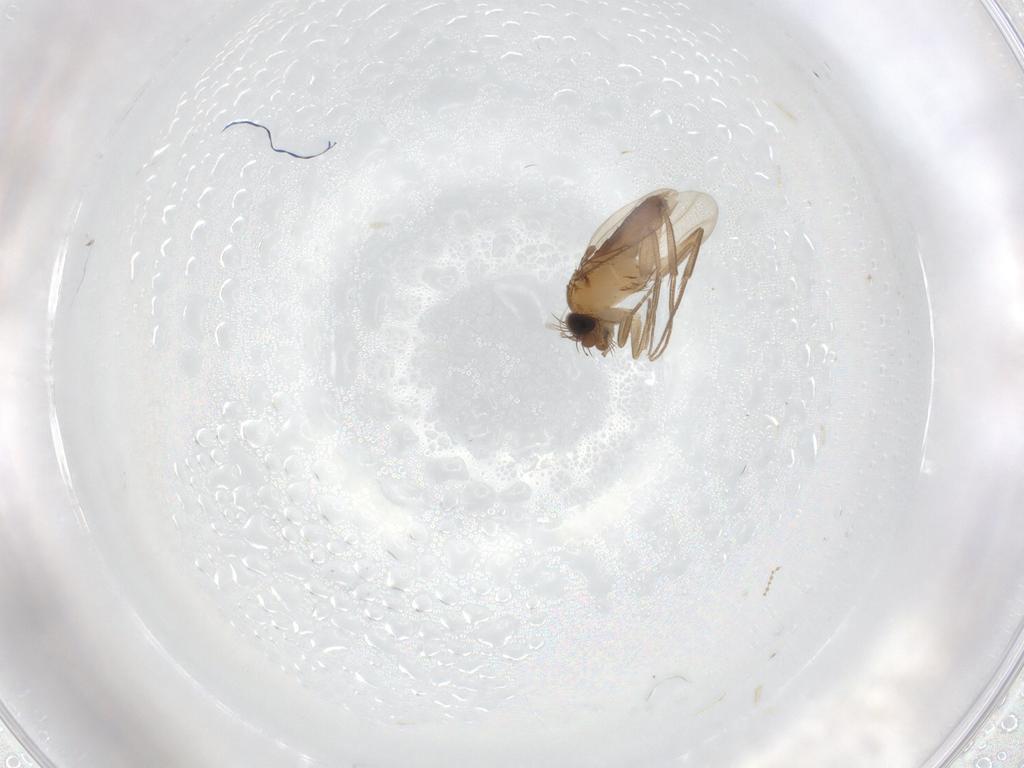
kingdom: Animalia
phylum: Arthropoda
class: Insecta
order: Diptera
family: Phoridae
